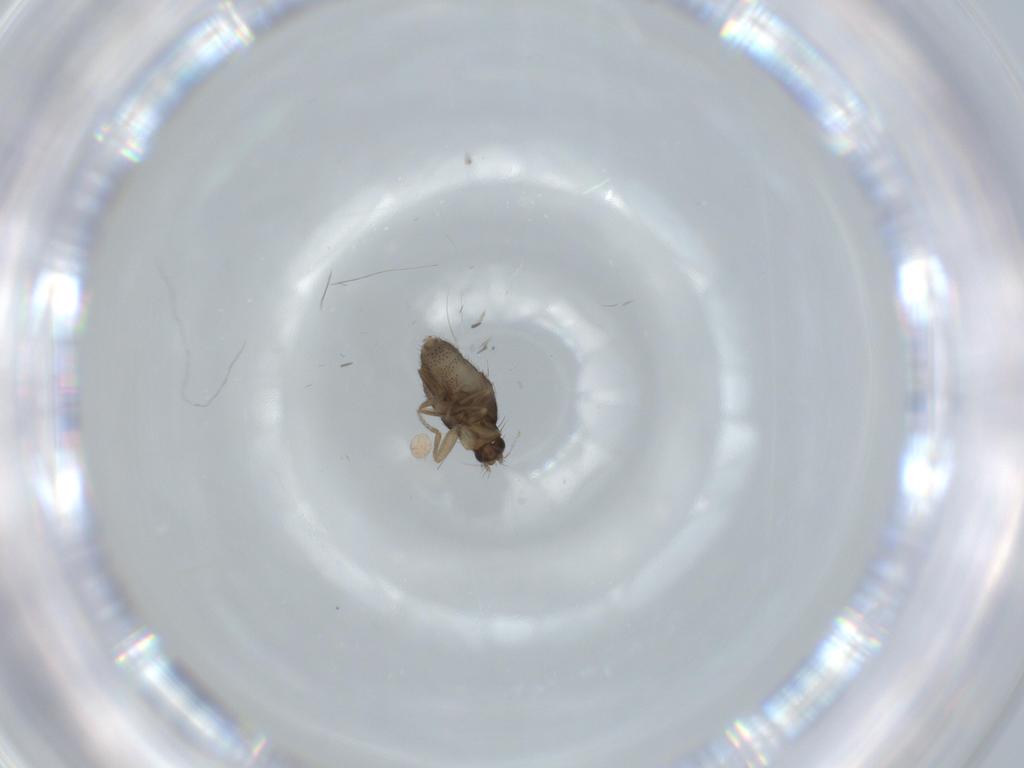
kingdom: Animalia
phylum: Arthropoda
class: Insecta
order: Diptera
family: Phoridae
